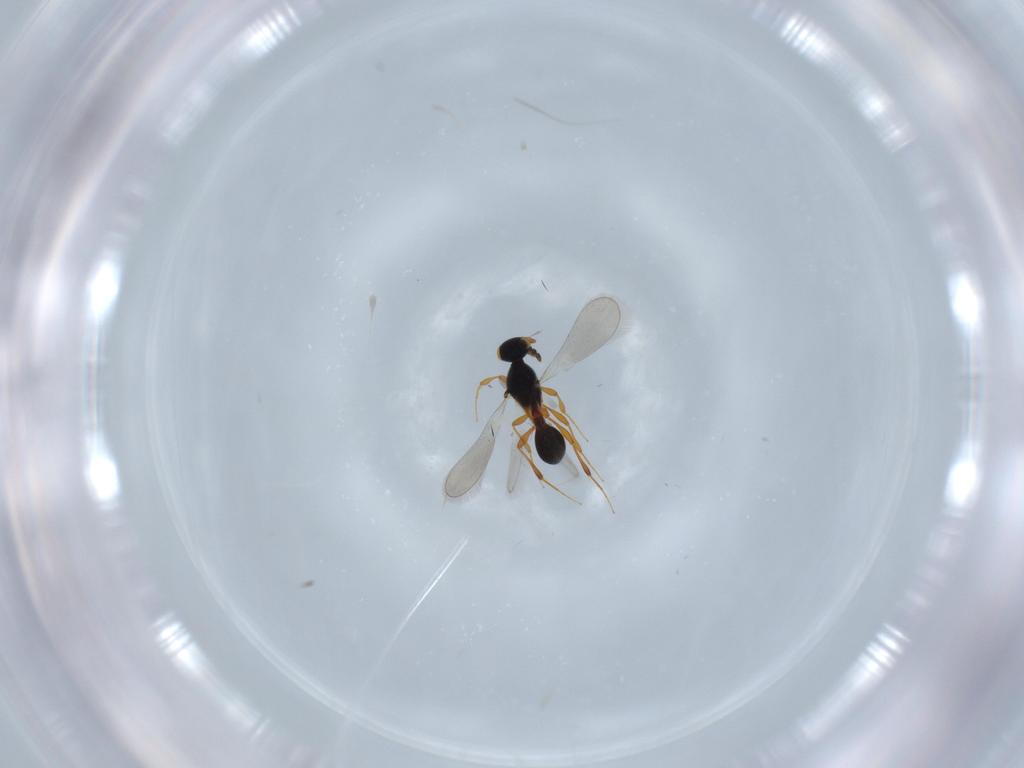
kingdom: Animalia
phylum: Arthropoda
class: Insecta
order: Hymenoptera
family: Platygastridae
